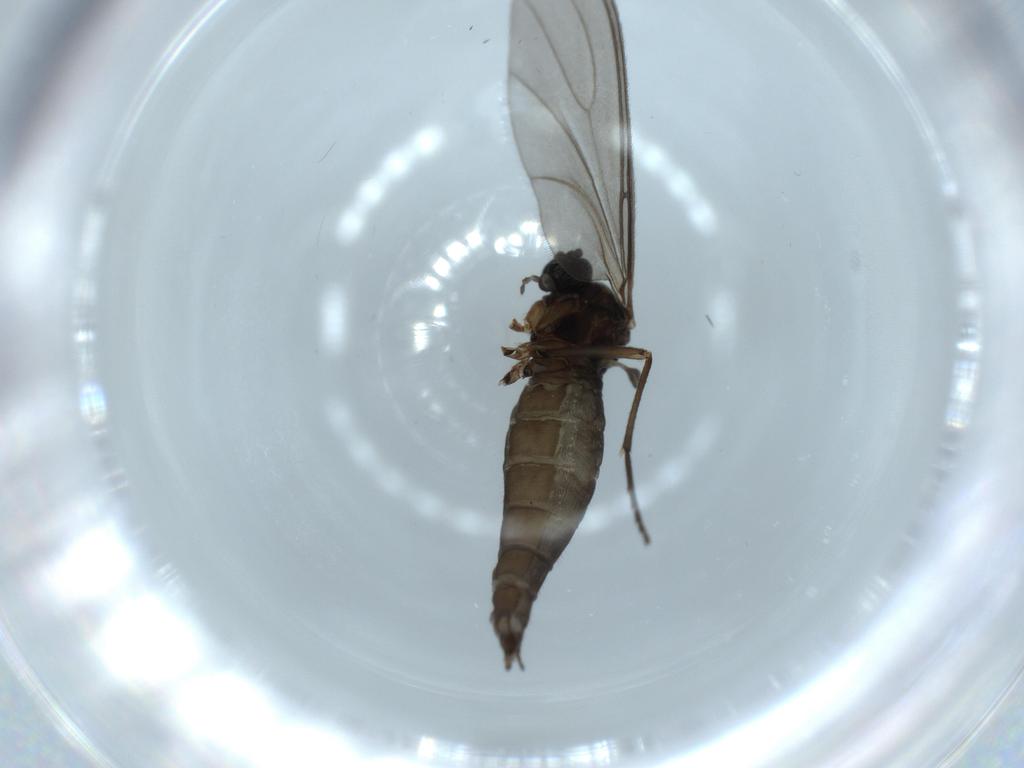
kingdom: Animalia
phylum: Arthropoda
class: Insecta
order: Diptera
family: Sciaridae
